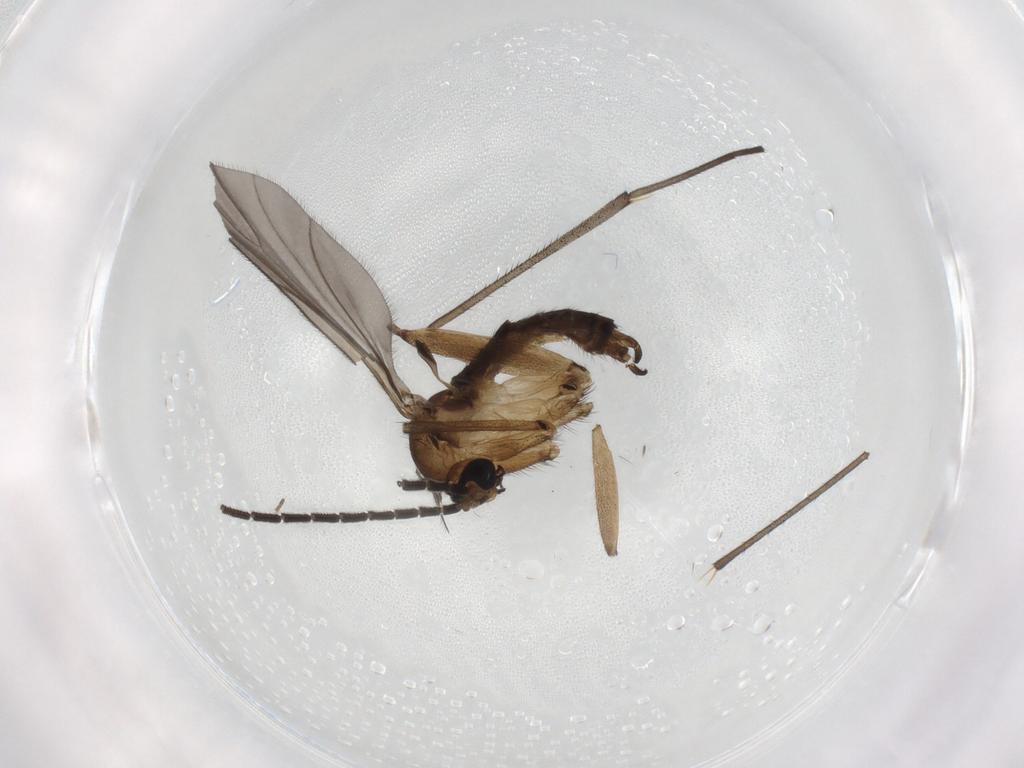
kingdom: Animalia
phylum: Arthropoda
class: Insecta
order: Diptera
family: Sciaridae
